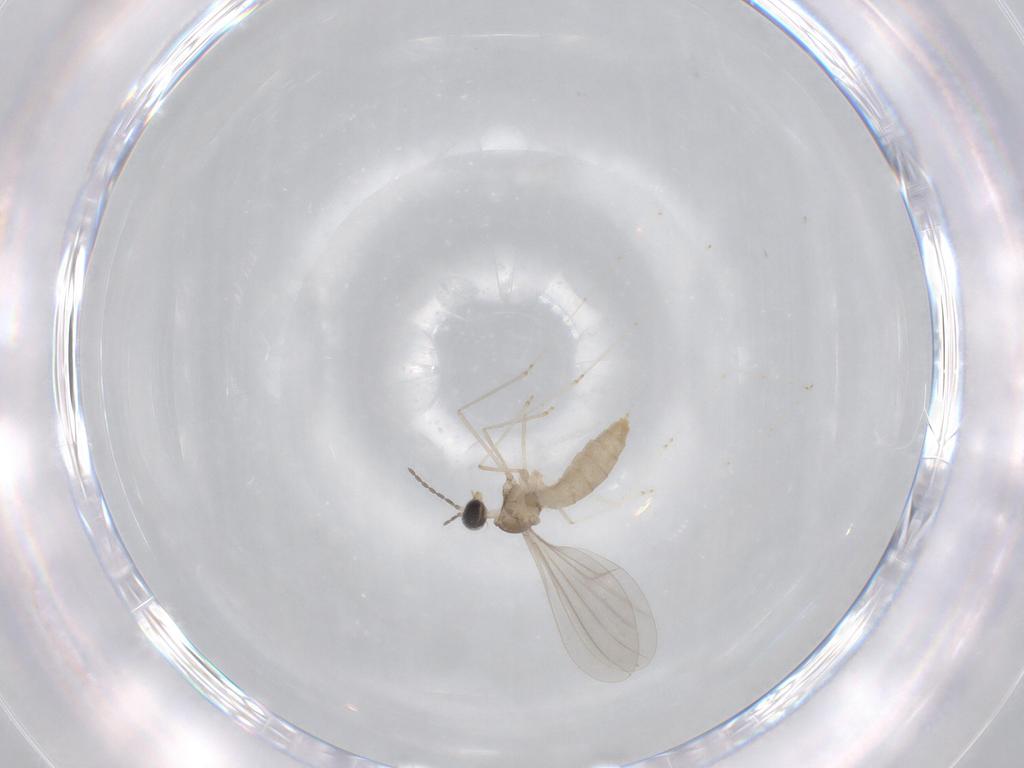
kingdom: Animalia
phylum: Arthropoda
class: Insecta
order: Diptera
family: Cecidomyiidae
